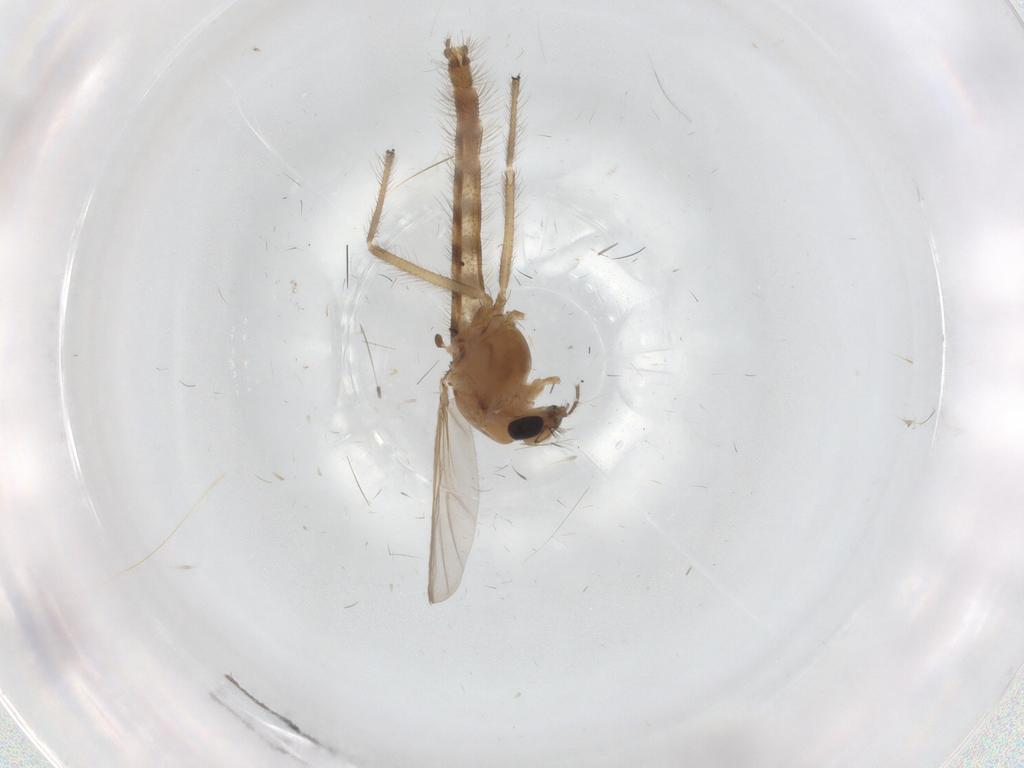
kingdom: Animalia
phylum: Arthropoda
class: Insecta
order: Diptera
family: Chironomidae
